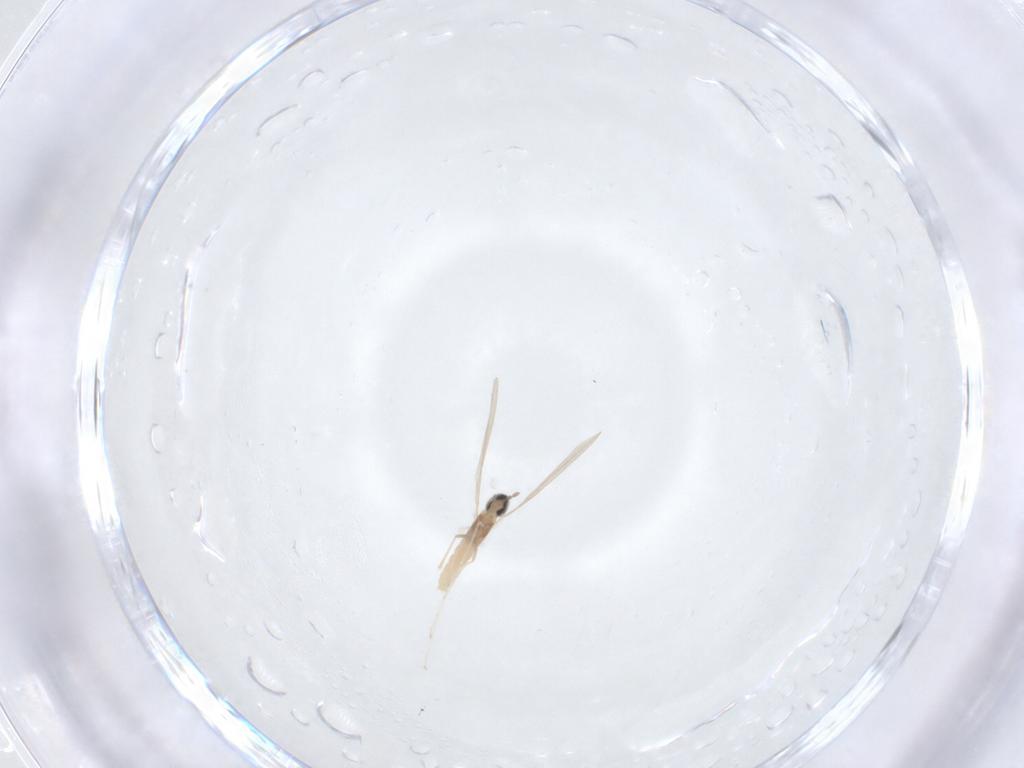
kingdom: Animalia
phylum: Arthropoda
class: Insecta
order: Diptera
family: Cecidomyiidae
